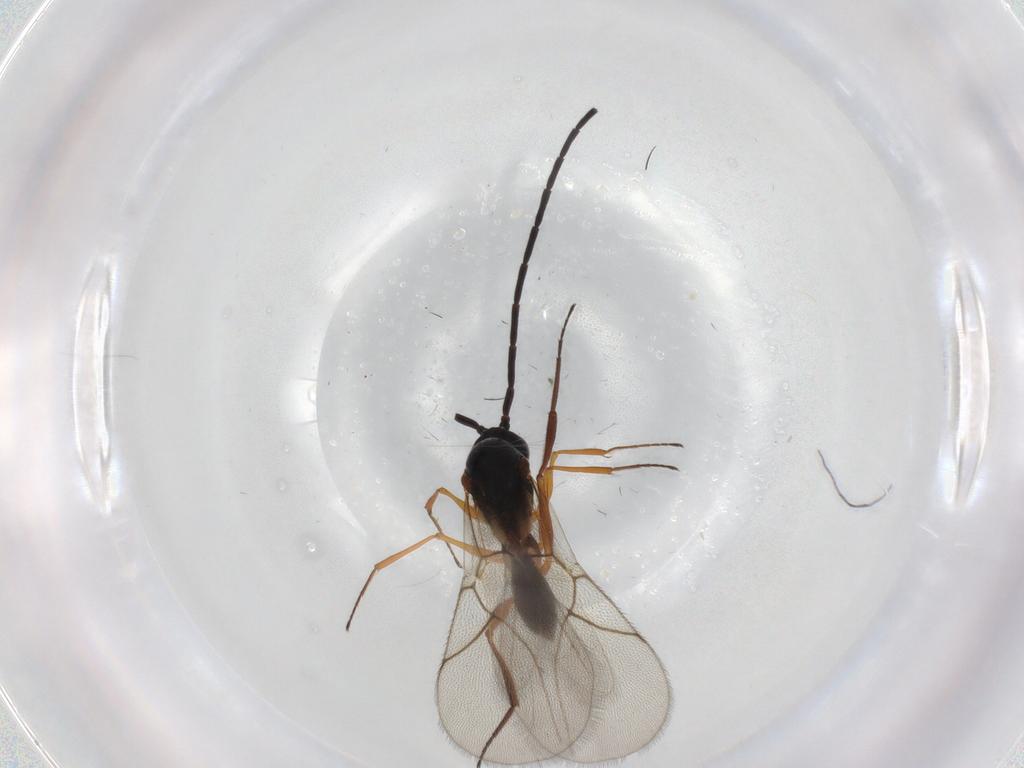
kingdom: Animalia
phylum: Arthropoda
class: Insecta
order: Hymenoptera
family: Figitidae
